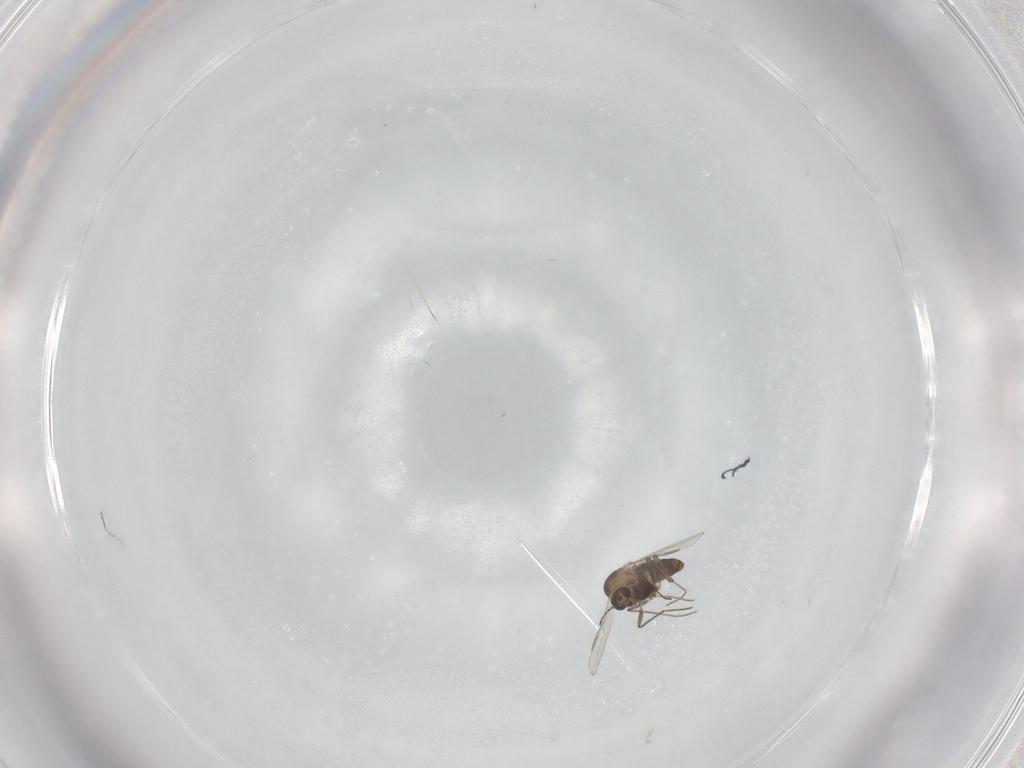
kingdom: Animalia
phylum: Arthropoda
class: Insecta
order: Diptera
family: Chironomidae
